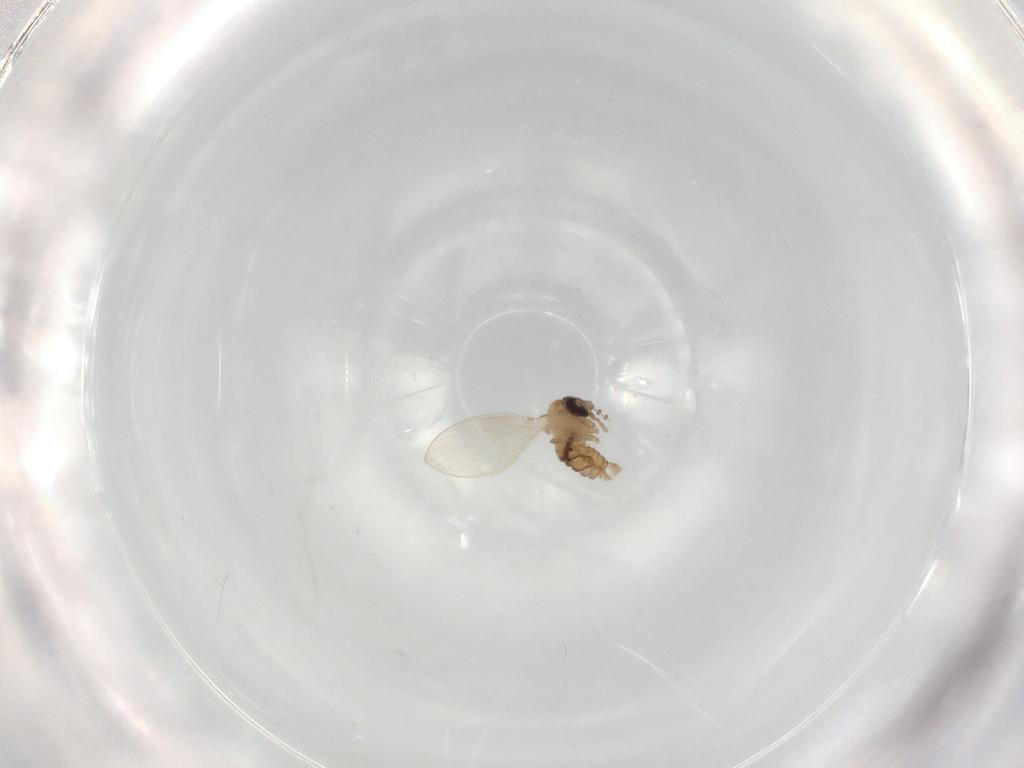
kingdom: Animalia
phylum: Arthropoda
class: Insecta
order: Diptera
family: Psychodidae
